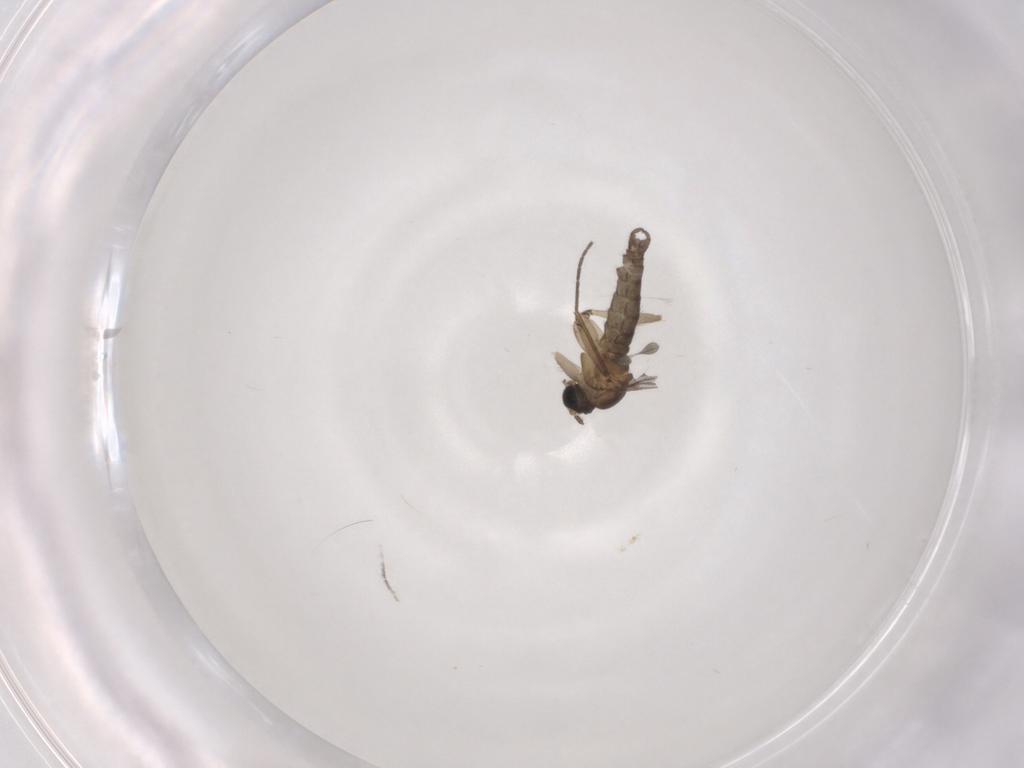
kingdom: Animalia
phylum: Arthropoda
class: Insecta
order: Diptera
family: Sciaridae
